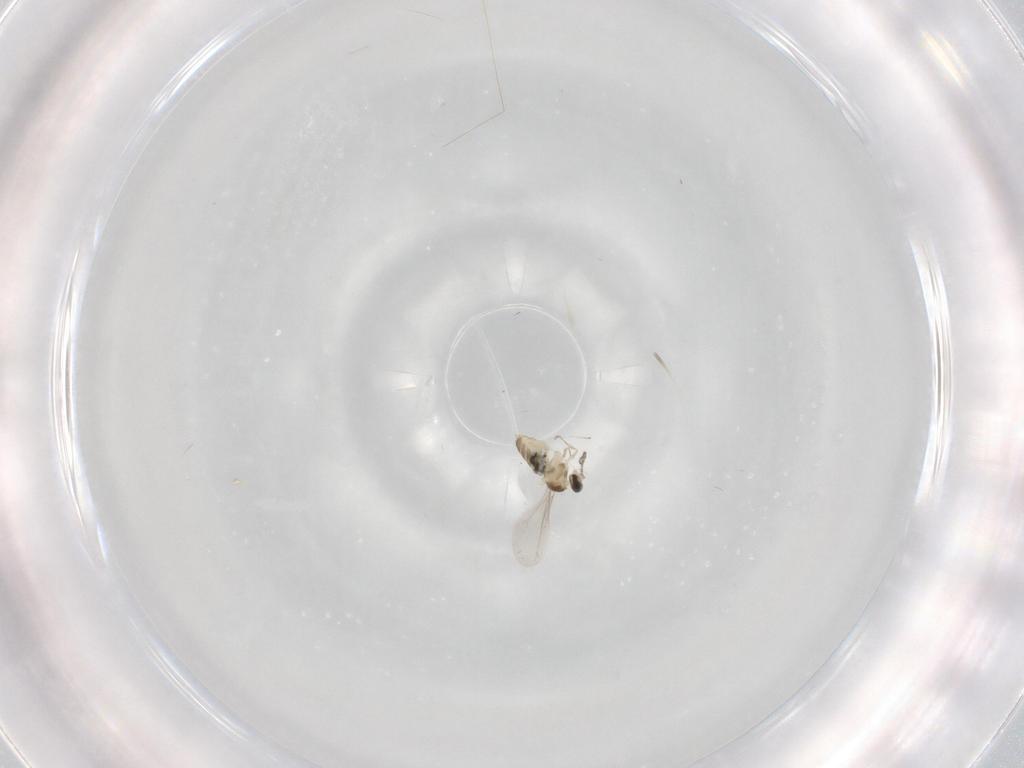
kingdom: Animalia
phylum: Arthropoda
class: Insecta
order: Diptera
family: Cecidomyiidae
